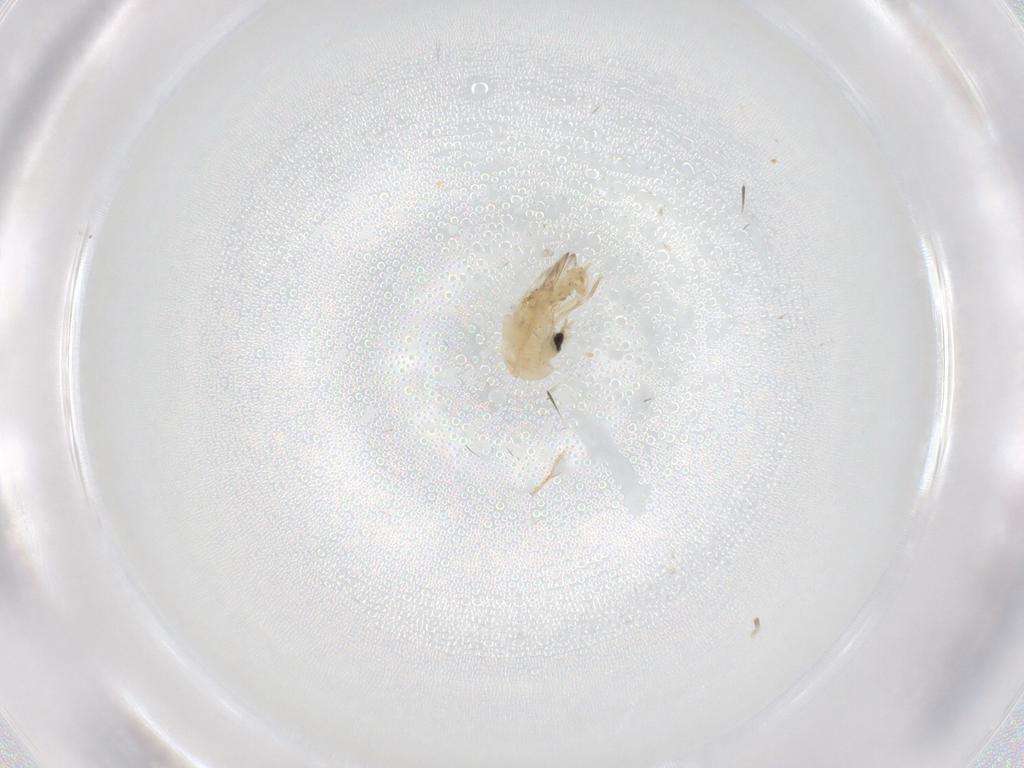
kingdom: Animalia
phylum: Arthropoda
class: Insecta
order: Diptera
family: Psychodidae
